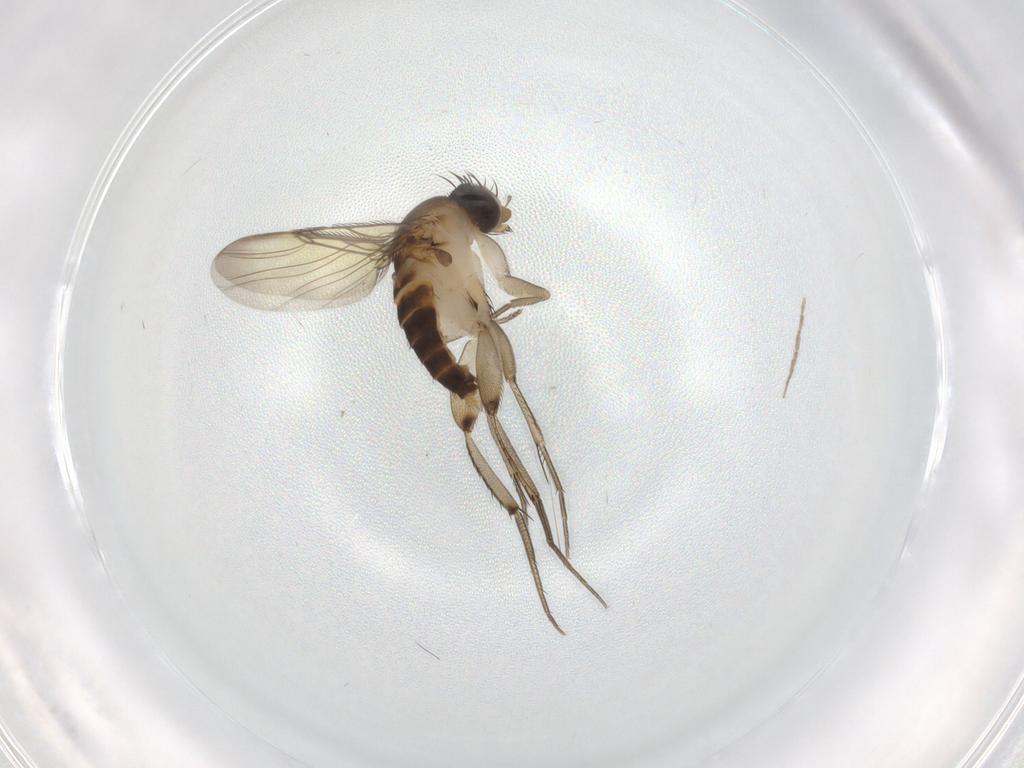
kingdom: Animalia
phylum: Arthropoda
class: Insecta
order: Diptera
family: Phoridae
